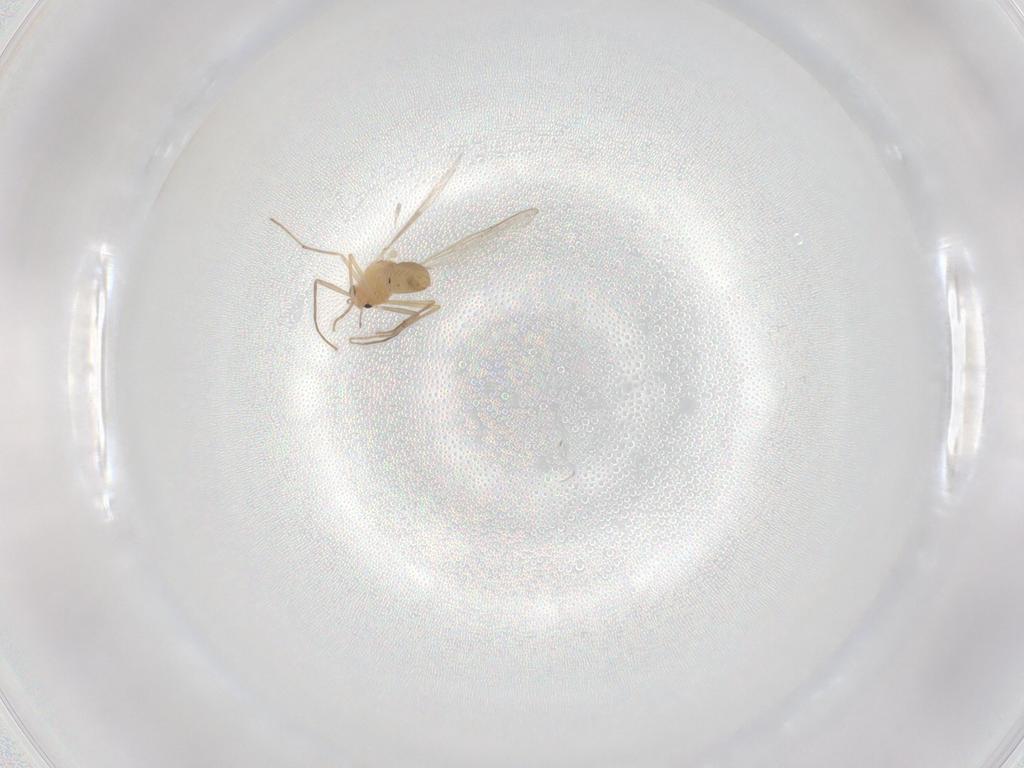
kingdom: Animalia
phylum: Arthropoda
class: Insecta
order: Diptera
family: Chironomidae
